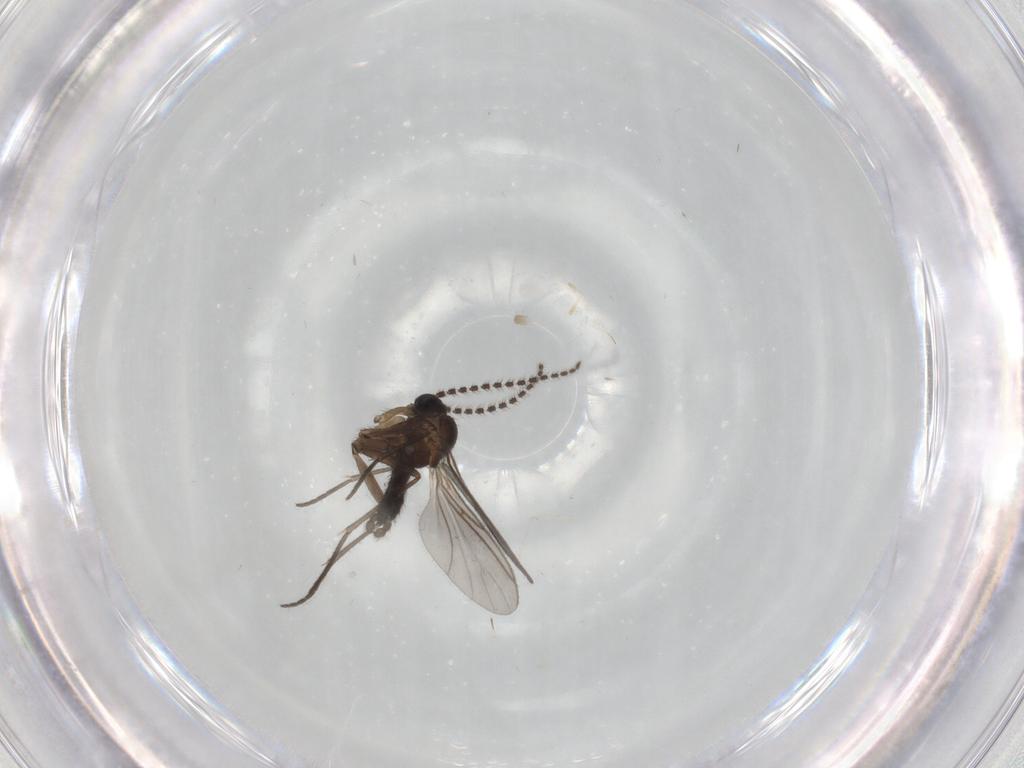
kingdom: Animalia
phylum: Arthropoda
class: Insecta
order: Diptera
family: Sciaridae
